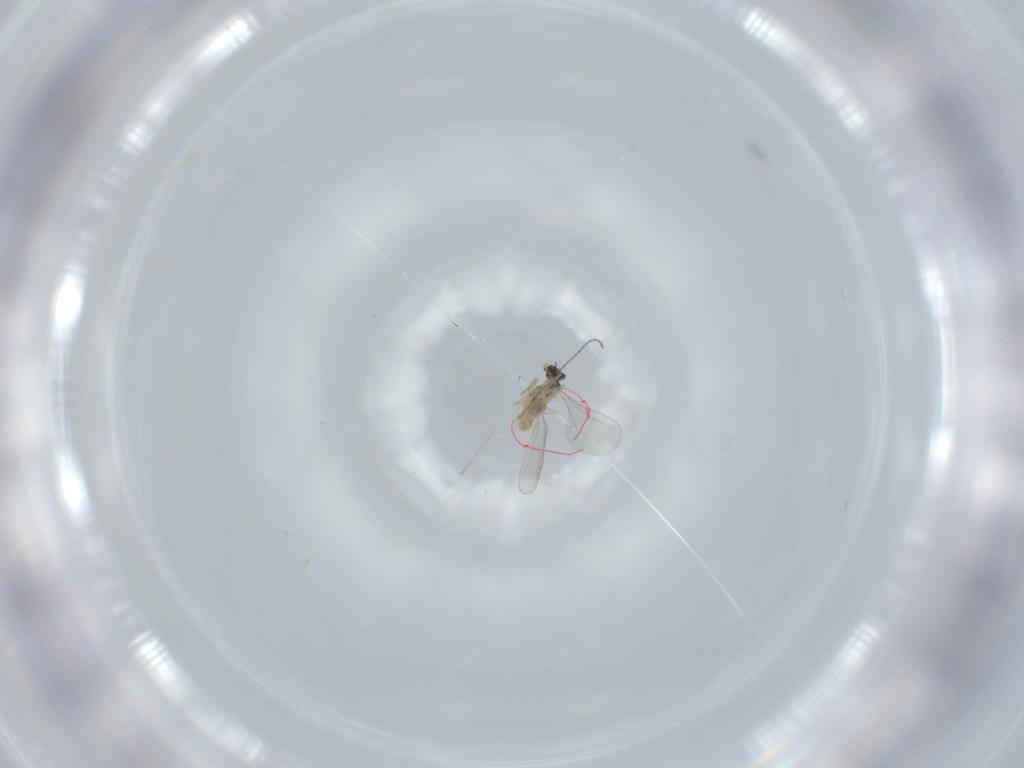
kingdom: Animalia
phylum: Arthropoda
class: Insecta
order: Diptera
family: Cecidomyiidae
